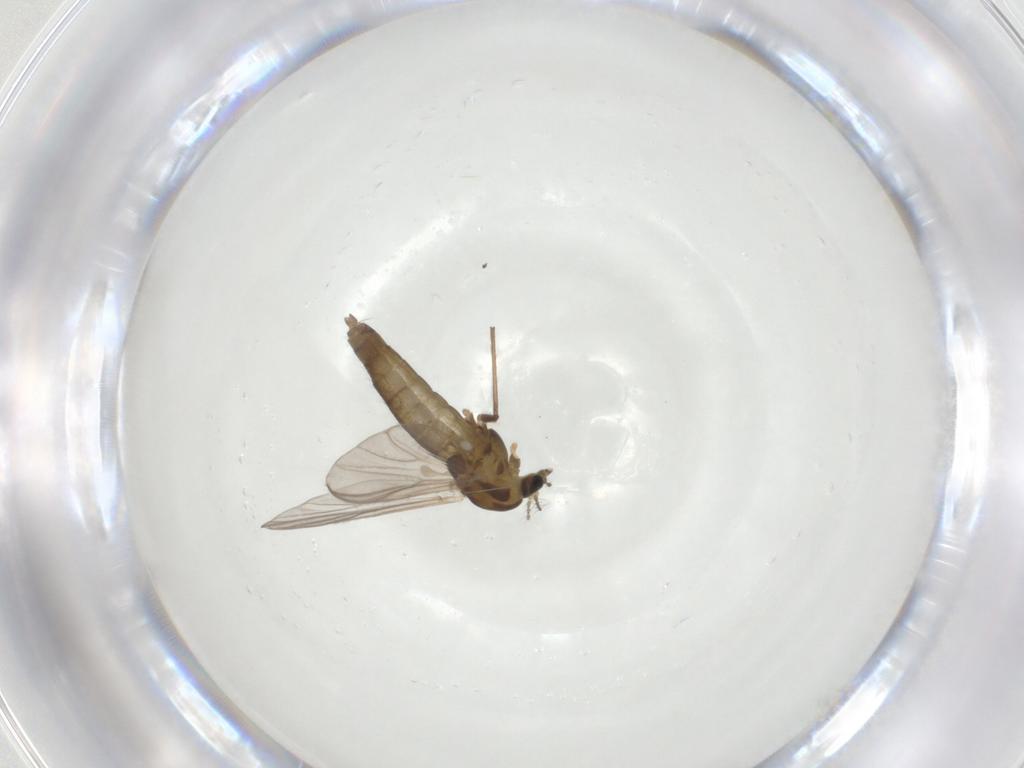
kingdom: Animalia
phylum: Arthropoda
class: Insecta
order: Diptera
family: Chironomidae
